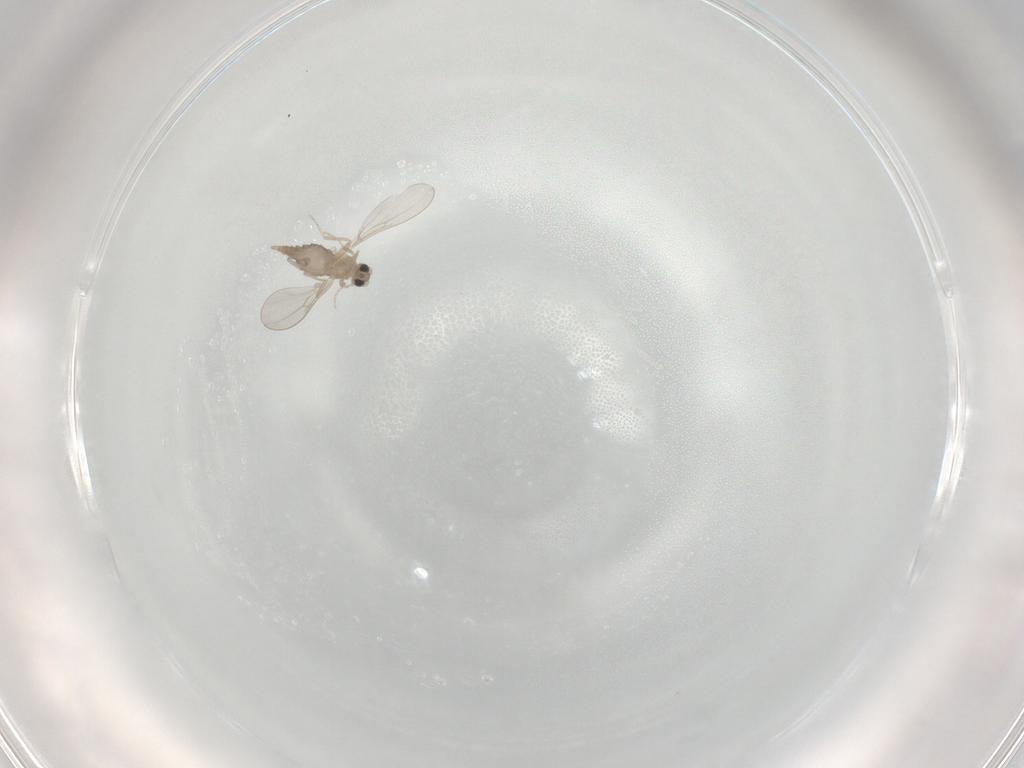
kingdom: Animalia
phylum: Arthropoda
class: Insecta
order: Diptera
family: Cecidomyiidae
